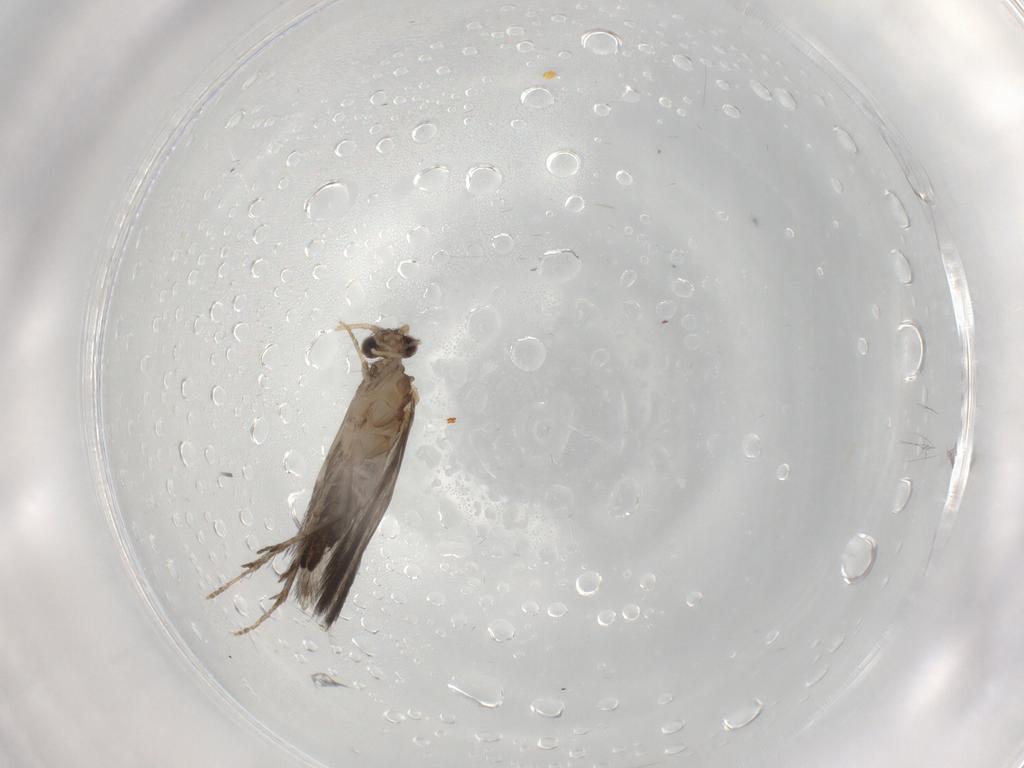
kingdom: Animalia
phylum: Arthropoda
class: Insecta
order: Trichoptera
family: Hydroptilidae
